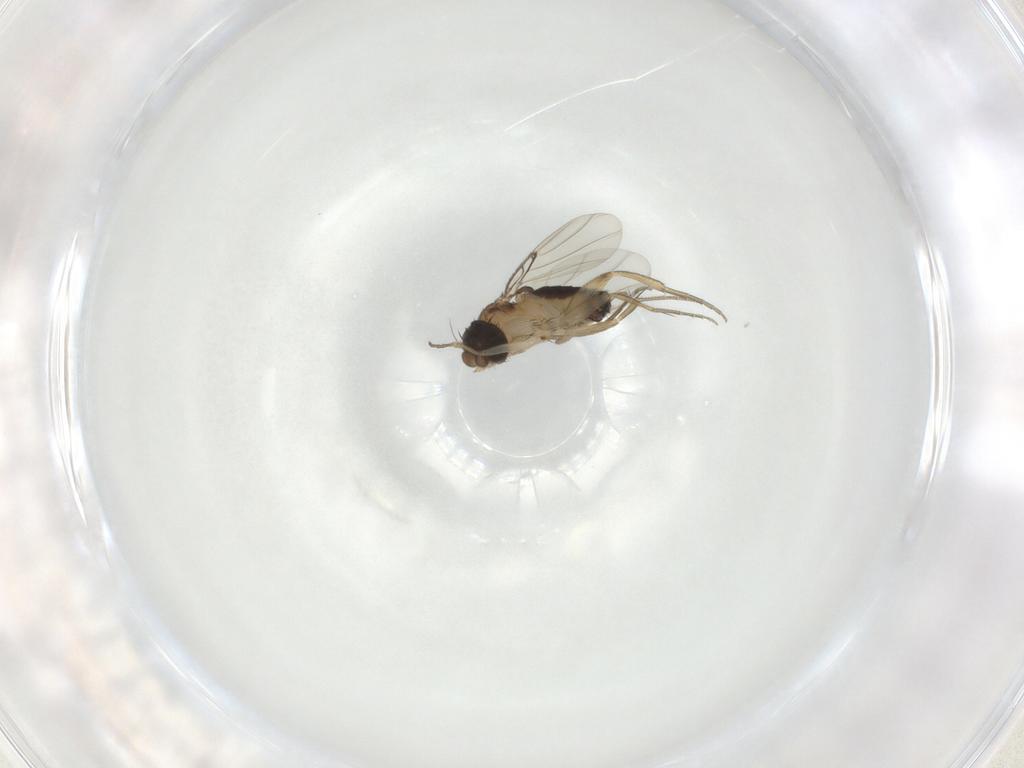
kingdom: Animalia
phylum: Arthropoda
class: Insecta
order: Diptera
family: Phoridae
